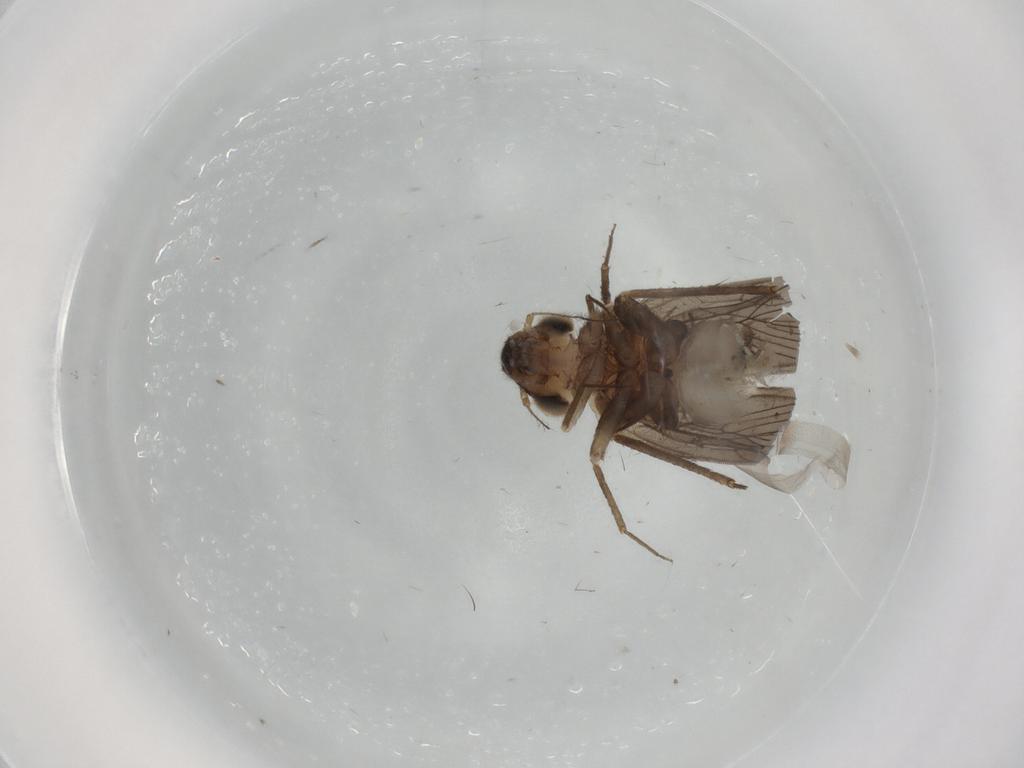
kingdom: Animalia
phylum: Arthropoda
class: Insecta
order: Psocodea
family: Lepidopsocidae
